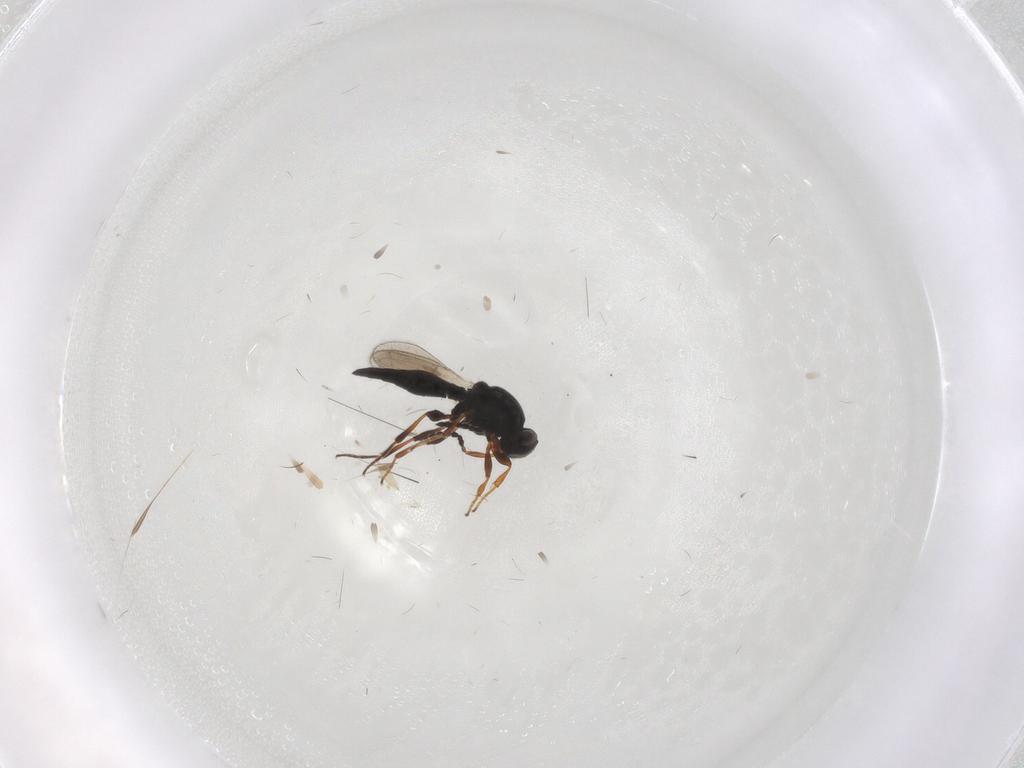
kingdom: Animalia
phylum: Arthropoda
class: Insecta
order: Hymenoptera
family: Platygastridae
